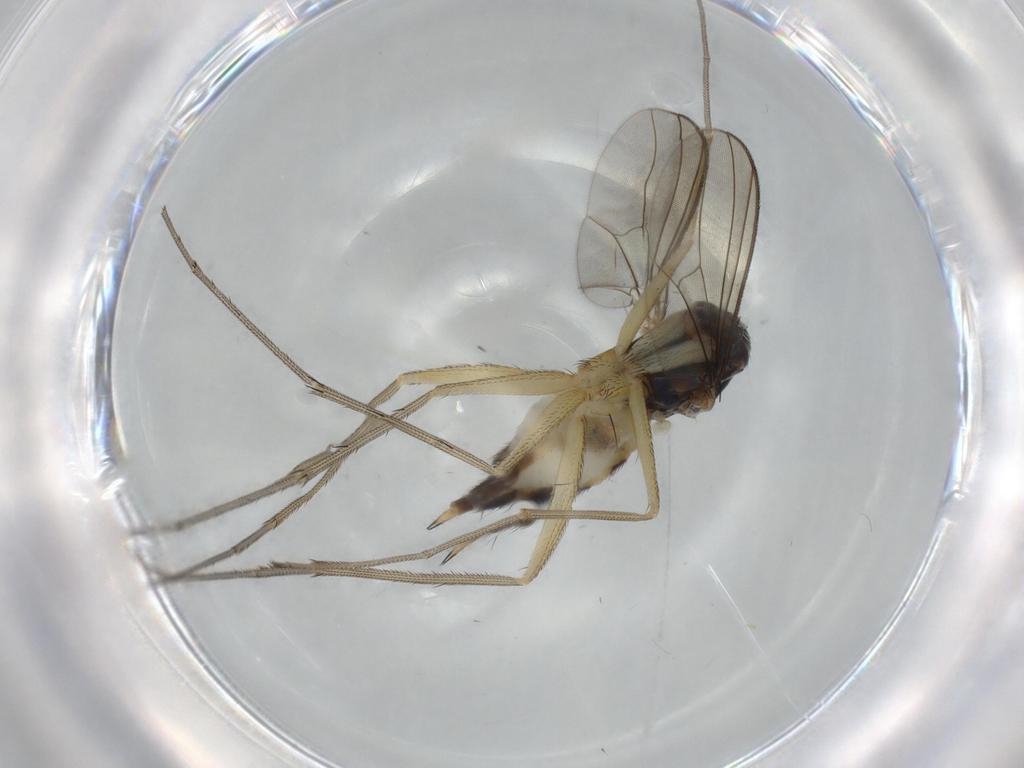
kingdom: Animalia
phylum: Arthropoda
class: Insecta
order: Diptera
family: Dolichopodidae
